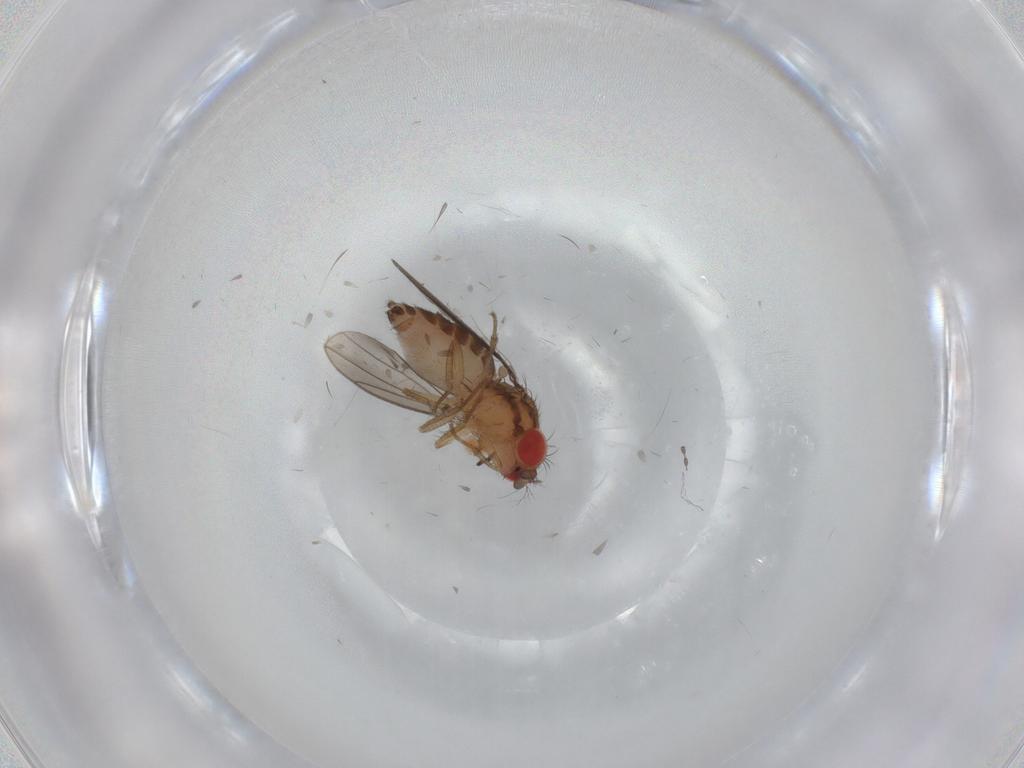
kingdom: Animalia
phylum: Arthropoda
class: Insecta
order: Diptera
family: Drosophilidae
